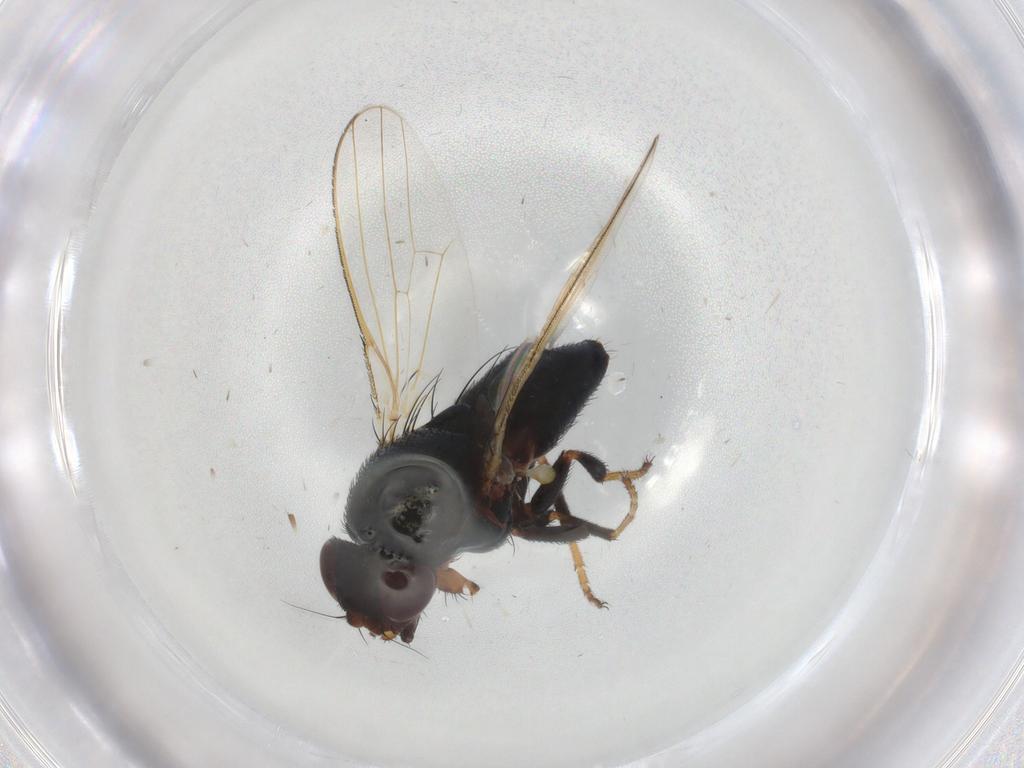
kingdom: Animalia
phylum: Arthropoda
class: Insecta
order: Diptera
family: Milichiidae
